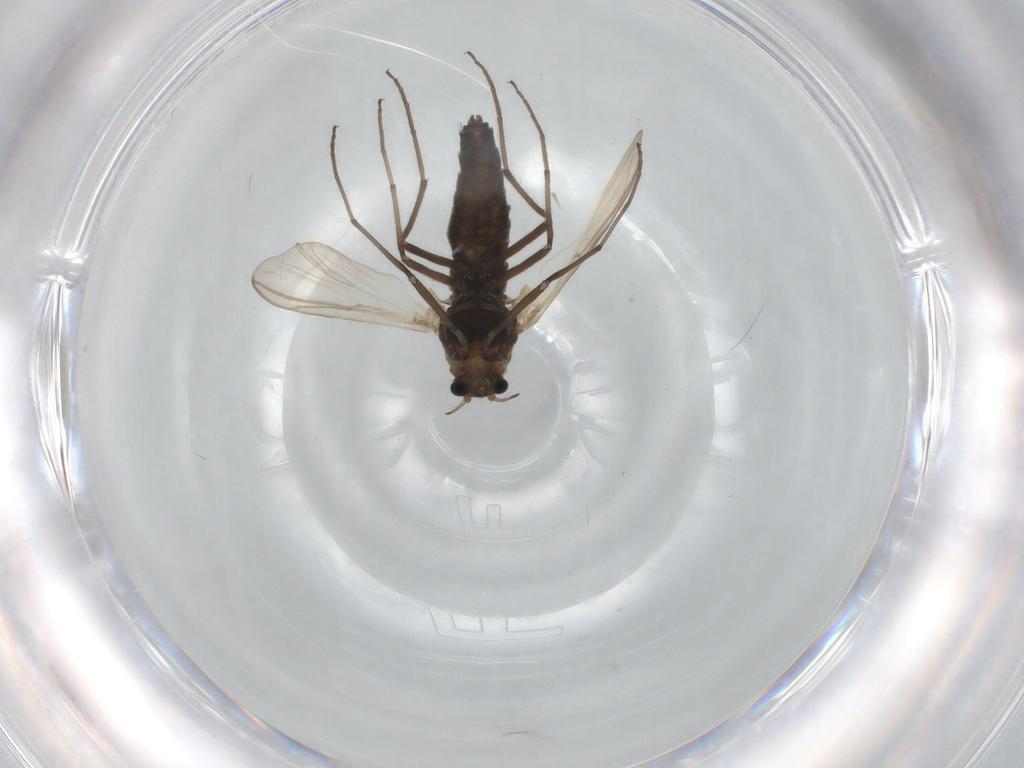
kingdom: Animalia
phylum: Arthropoda
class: Insecta
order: Diptera
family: Chironomidae
